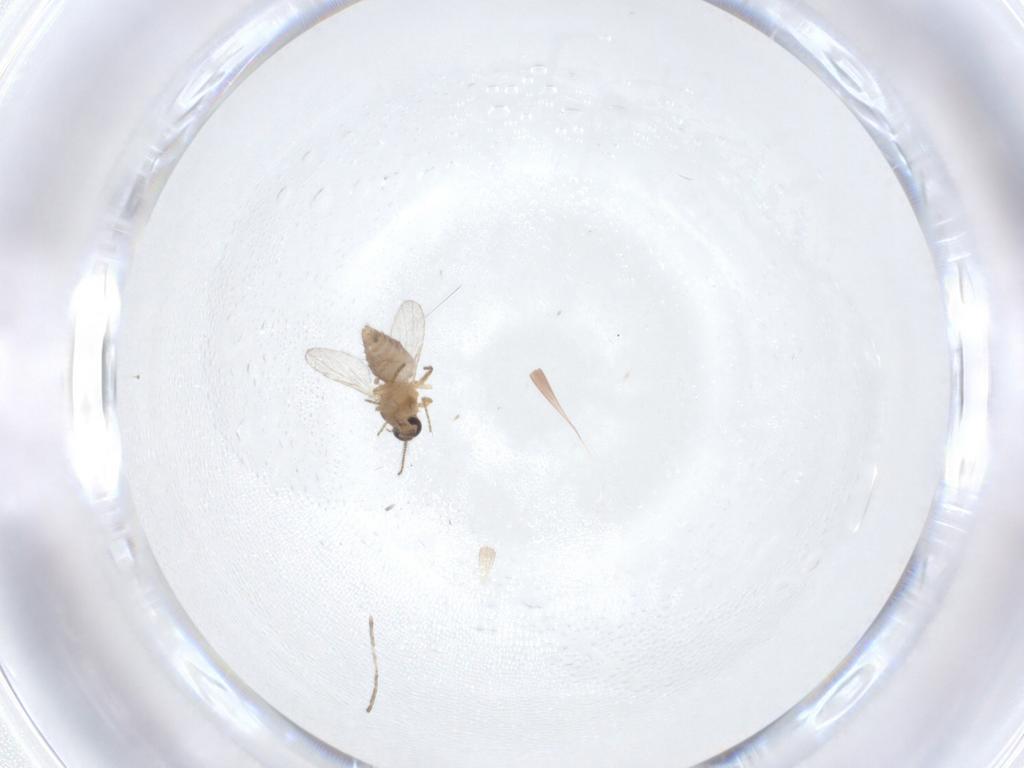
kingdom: Animalia
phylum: Arthropoda
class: Insecta
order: Diptera
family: Ceratopogonidae
